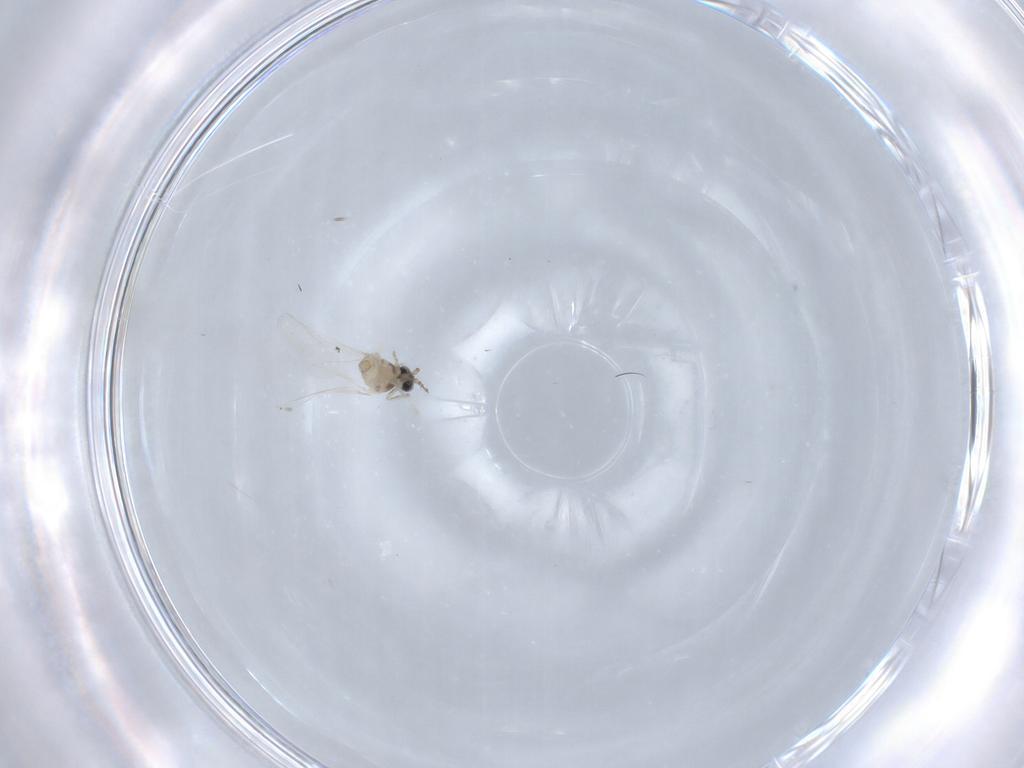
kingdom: Animalia
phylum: Arthropoda
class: Insecta
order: Diptera
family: Cecidomyiidae
